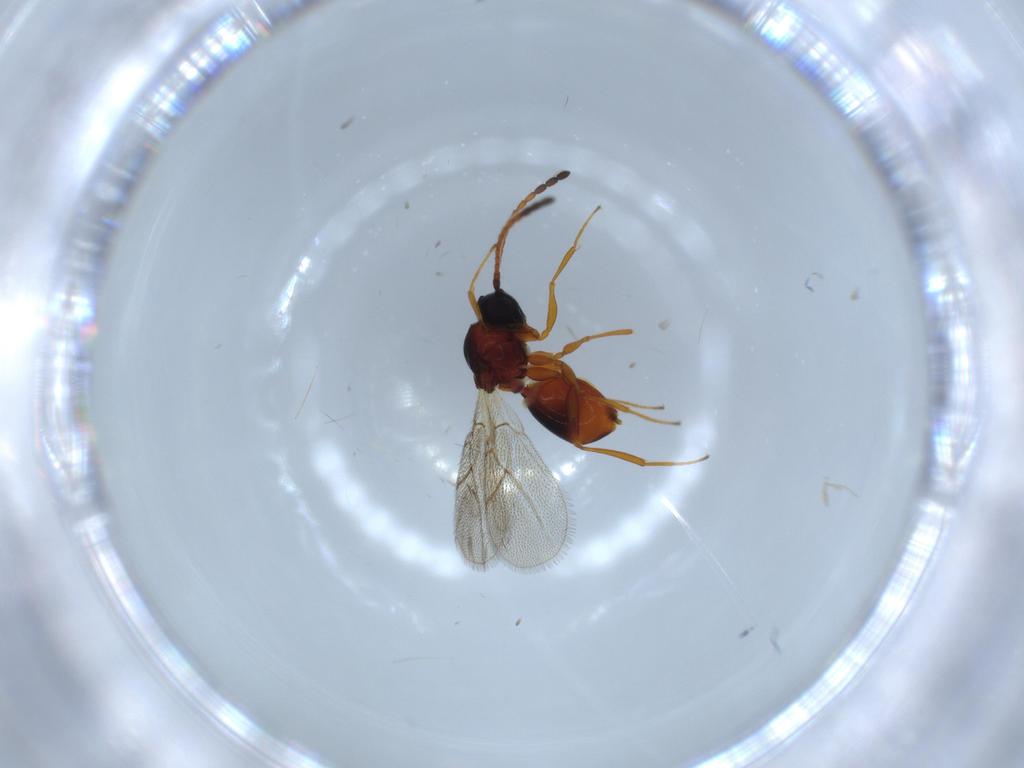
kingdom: Animalia
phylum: Arthropoda
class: Insecta
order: Hymenoptera
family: Figitidae
